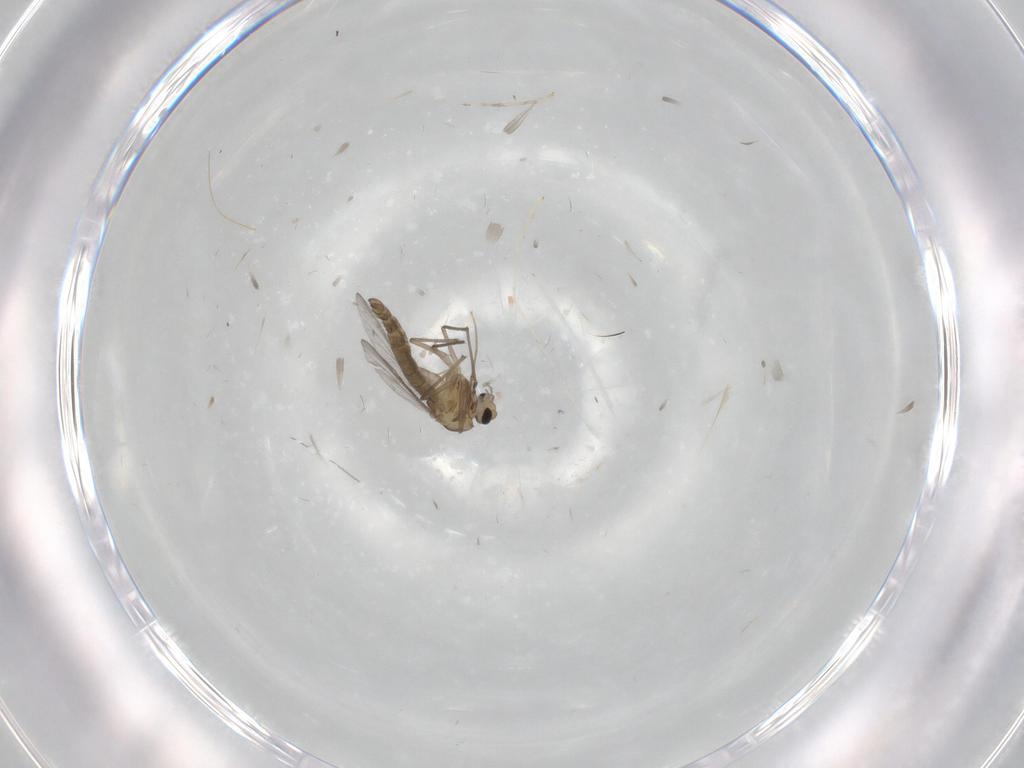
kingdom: Animalia
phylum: Arthropoda
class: Insecta
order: Diptera
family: Chironomidae
